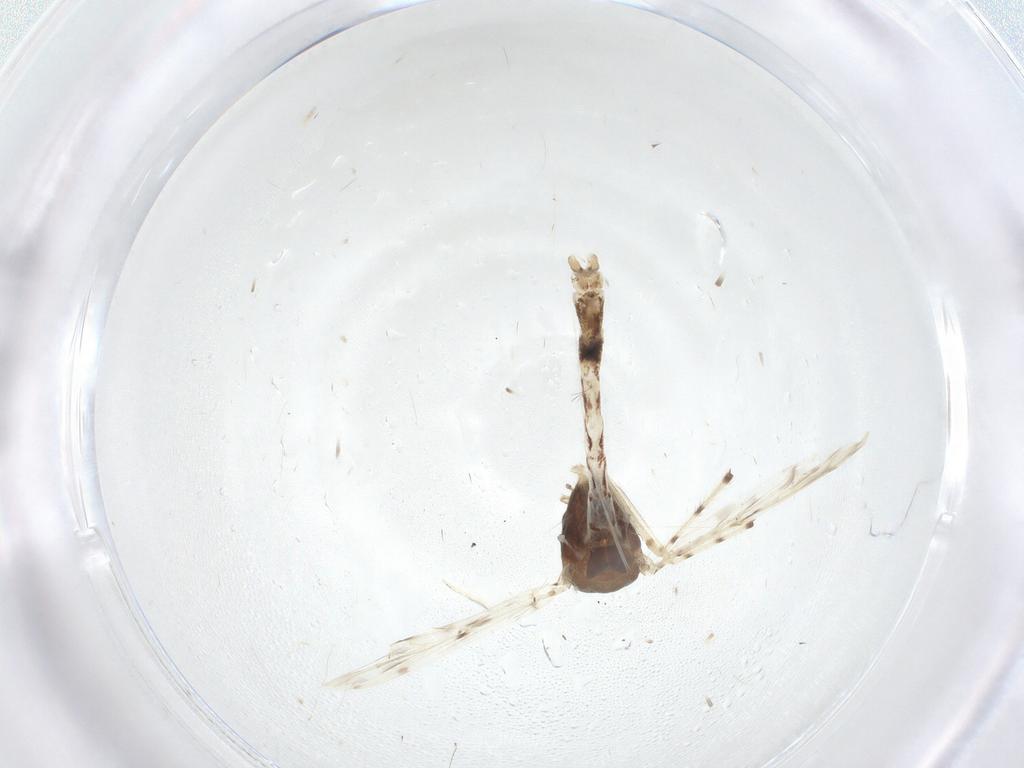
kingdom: Animalia
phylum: Arthropoda
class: Insecta
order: Diptera
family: Chironomidae
